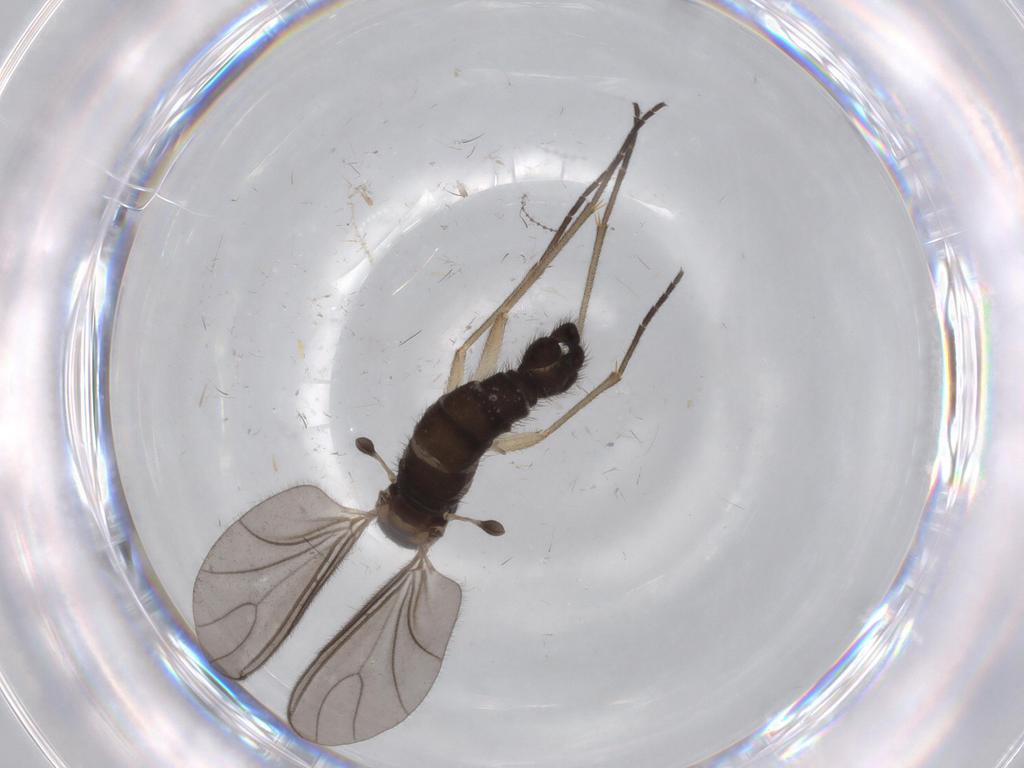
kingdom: Animalia
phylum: Arthropoda
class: Insecta
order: Diptera
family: Sciaridae
